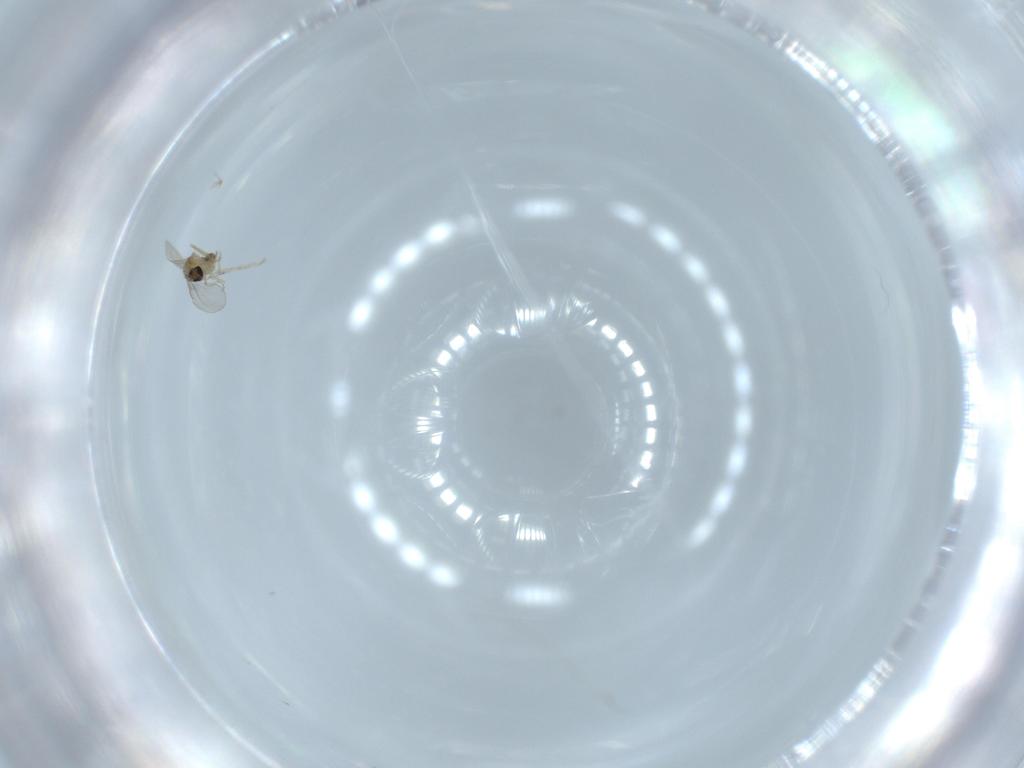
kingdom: Animalia
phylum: Arthropoda
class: Insecta
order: Diptera
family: Cecidomyiidae
